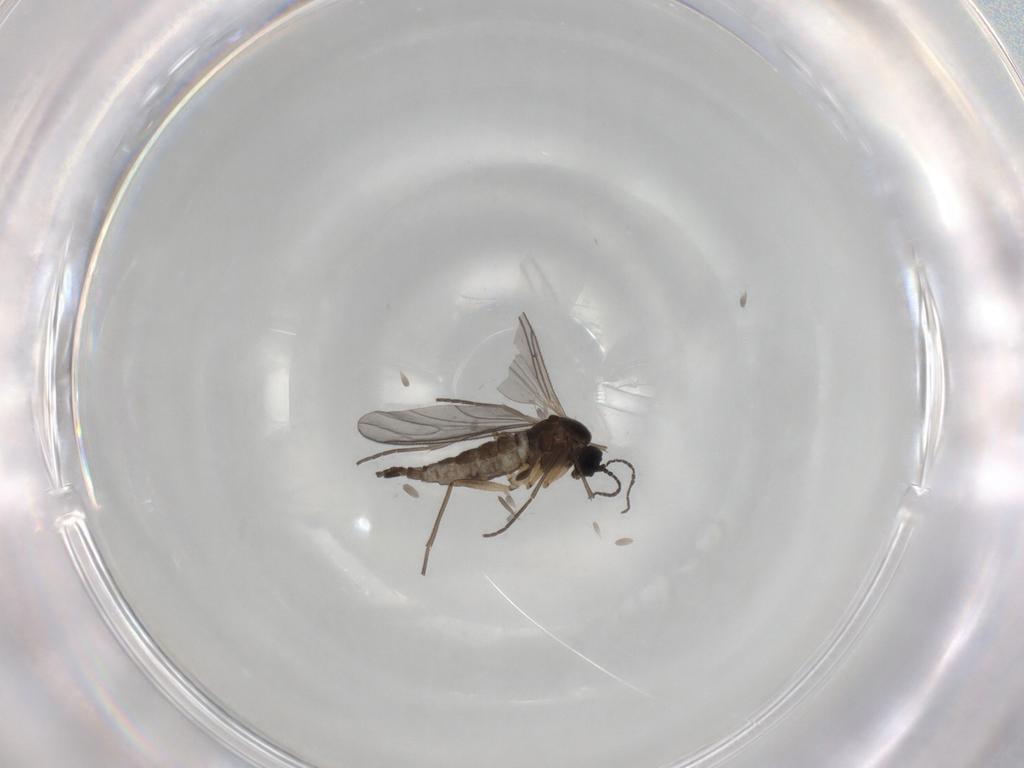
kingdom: Animalia
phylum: Arthropoda
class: Insecta
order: Diptera
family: Sciaridae
